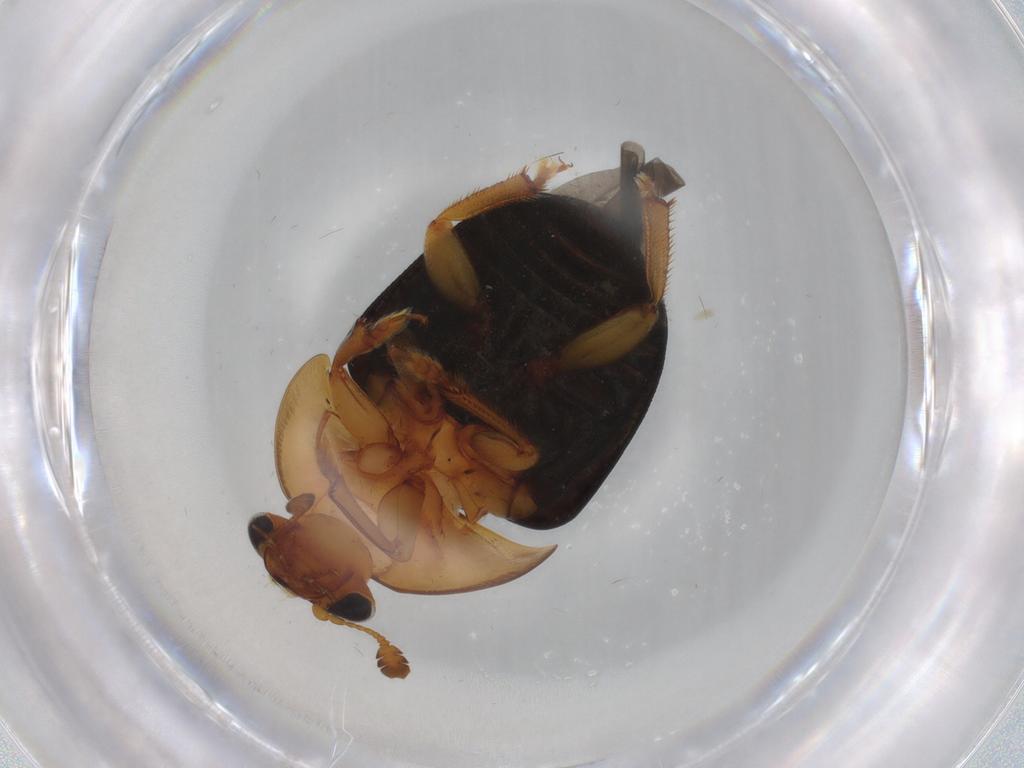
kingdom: Animalia
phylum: Arthropoda
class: Insecta
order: Coleoptera
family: Nitidulidae
